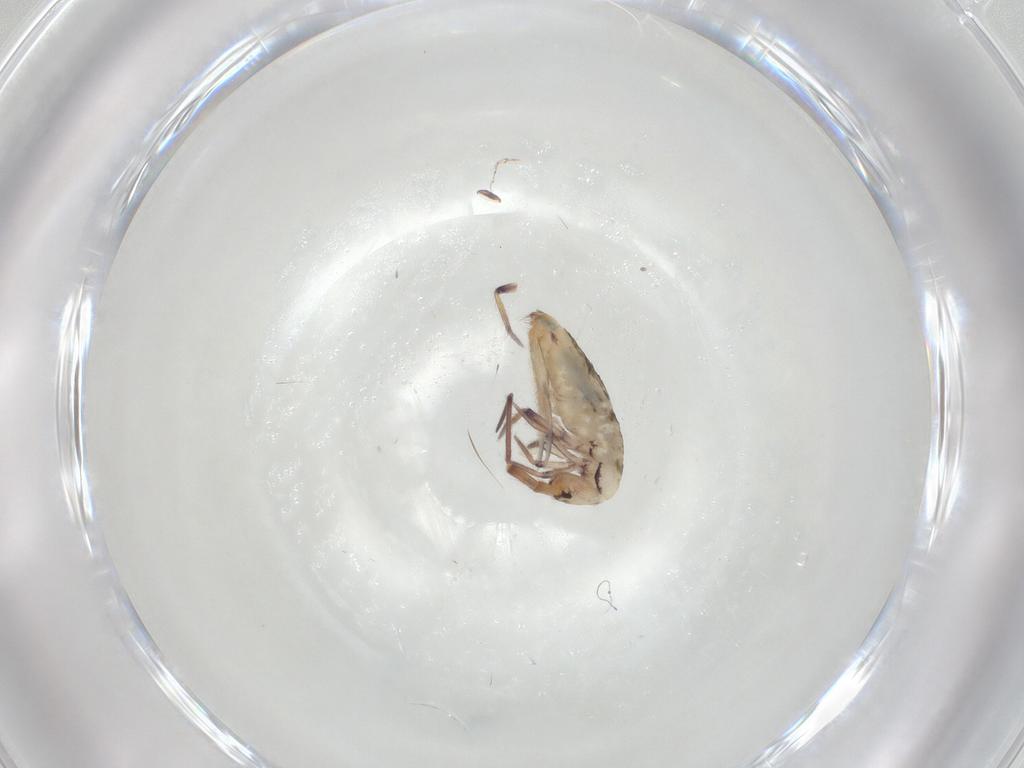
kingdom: Animalia
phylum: Arthropoda
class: Collembola
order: Entomobryomorpha
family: Entomobryidae
